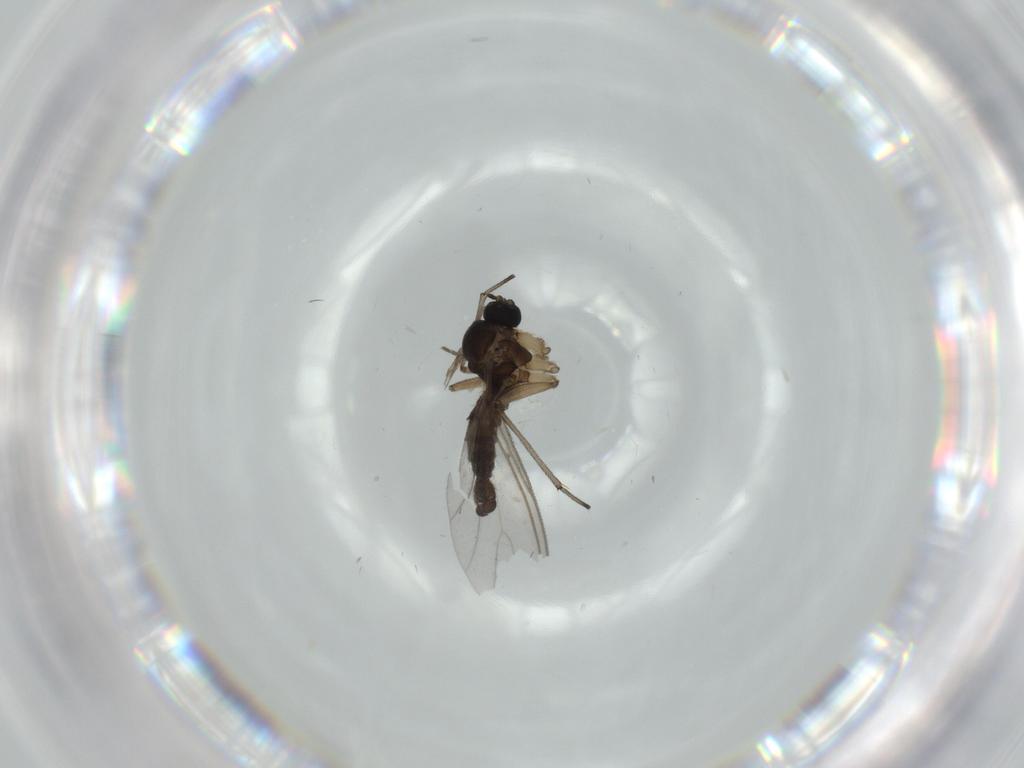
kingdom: Animalia
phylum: Arthropoda
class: Insecta
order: Diptera
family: Sciaridae
